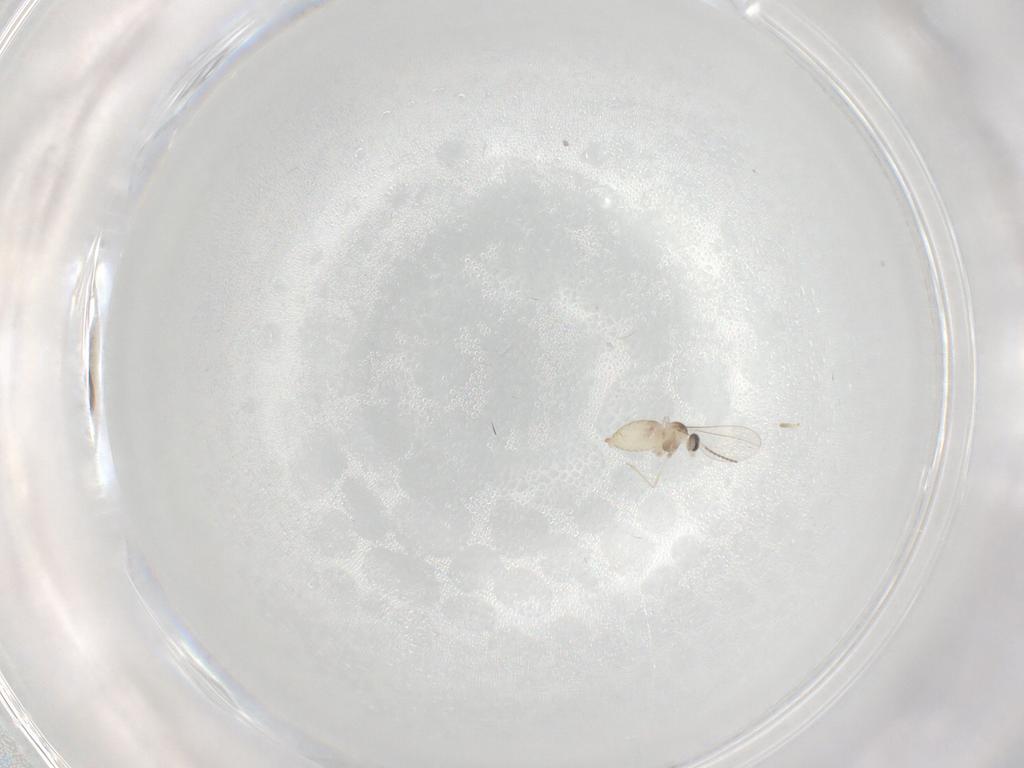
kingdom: Animalia
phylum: Arthropoda
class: Insecta
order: Diptera
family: Cecidomyiidae
